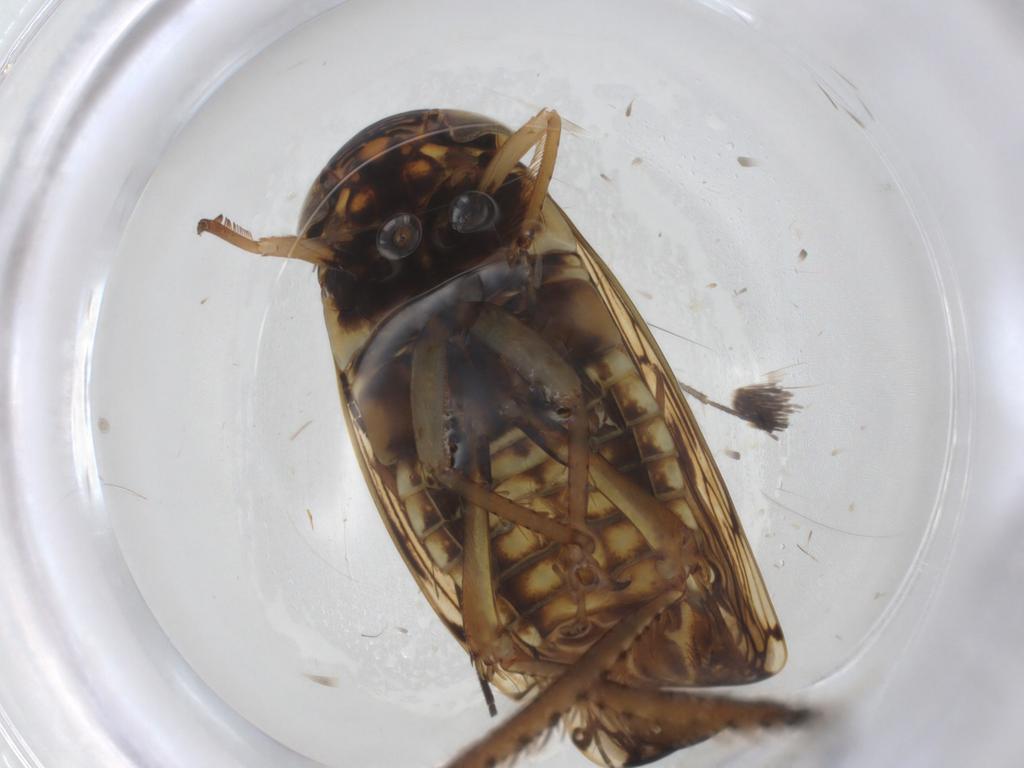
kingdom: Animalia
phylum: Arthropoda
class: Insecta
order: Hemiptera
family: Cicadellidae
